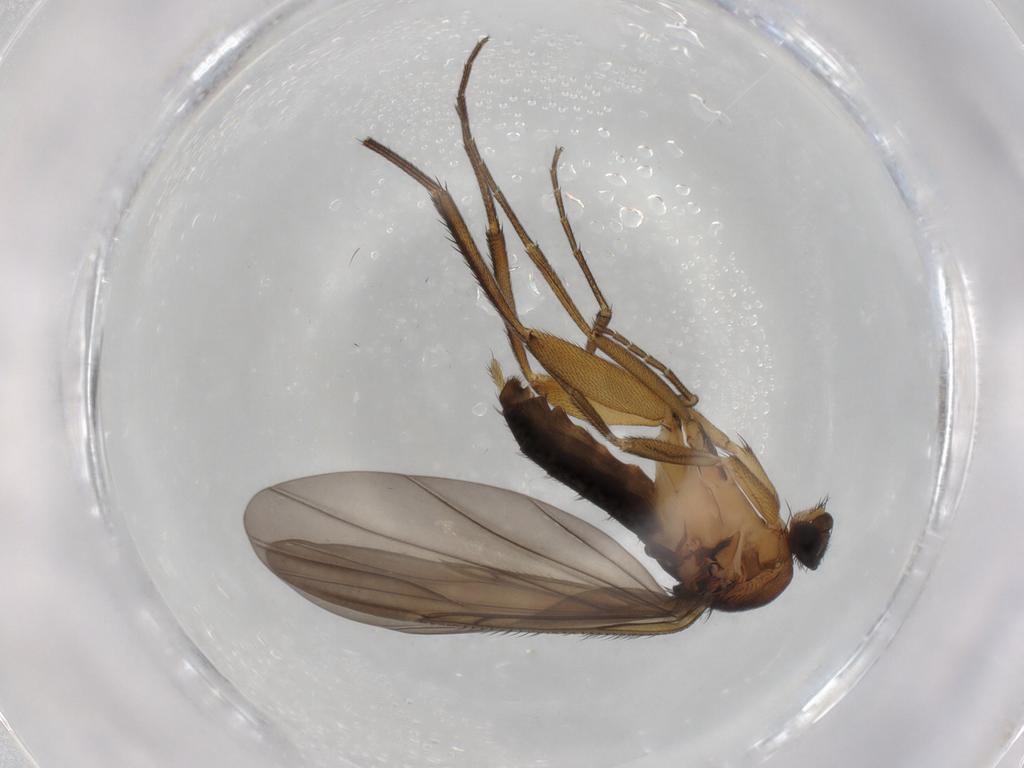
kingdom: Animalia
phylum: Arthropoda
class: Insecta
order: Diptera
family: Phoridae
